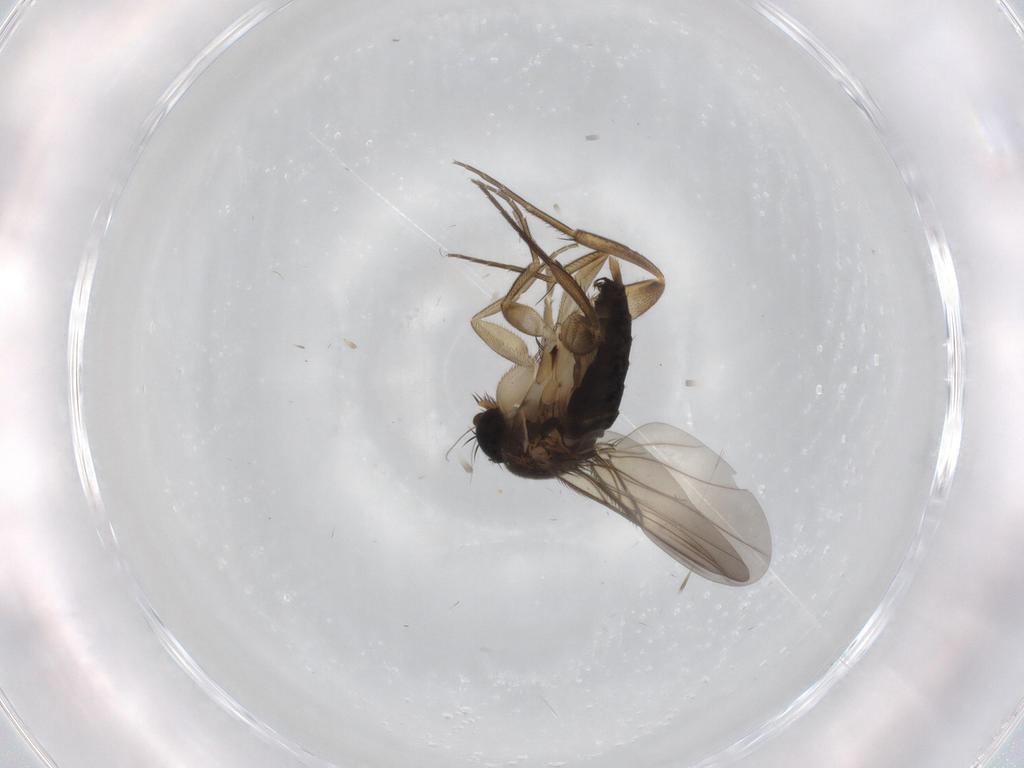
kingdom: Animalia
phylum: Arthropoda
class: Insecta
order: Diptera
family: Phoridae
